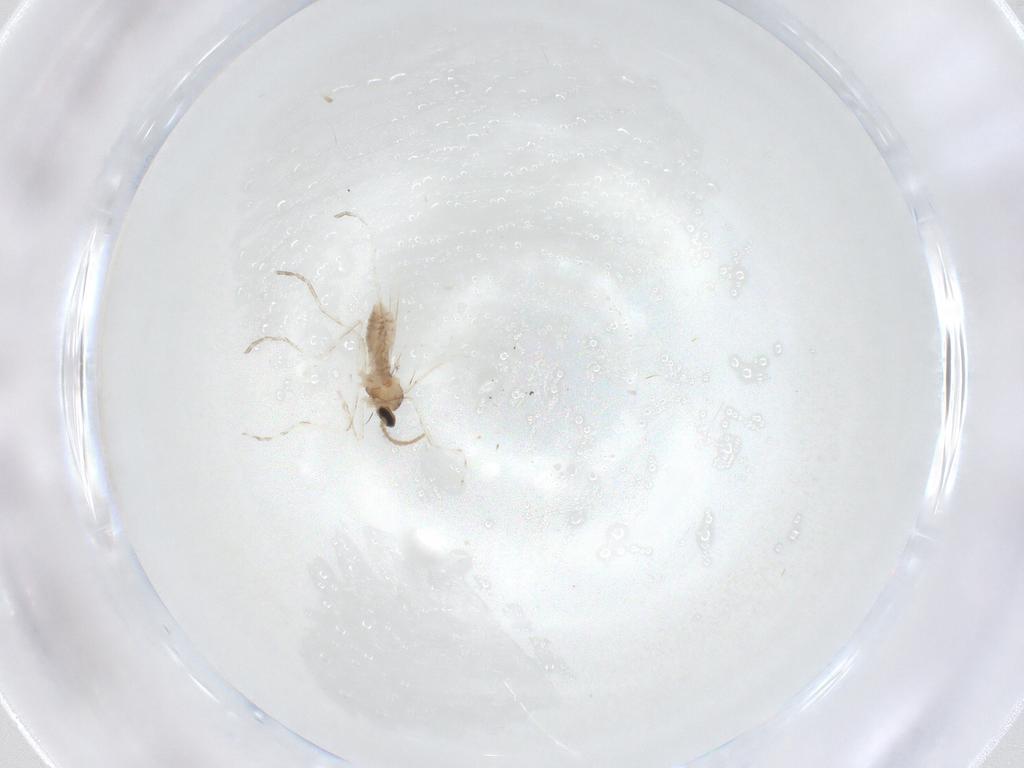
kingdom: Animalia
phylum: Arthropoda
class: Insecta
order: Diptera
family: Cecidomyiidae
